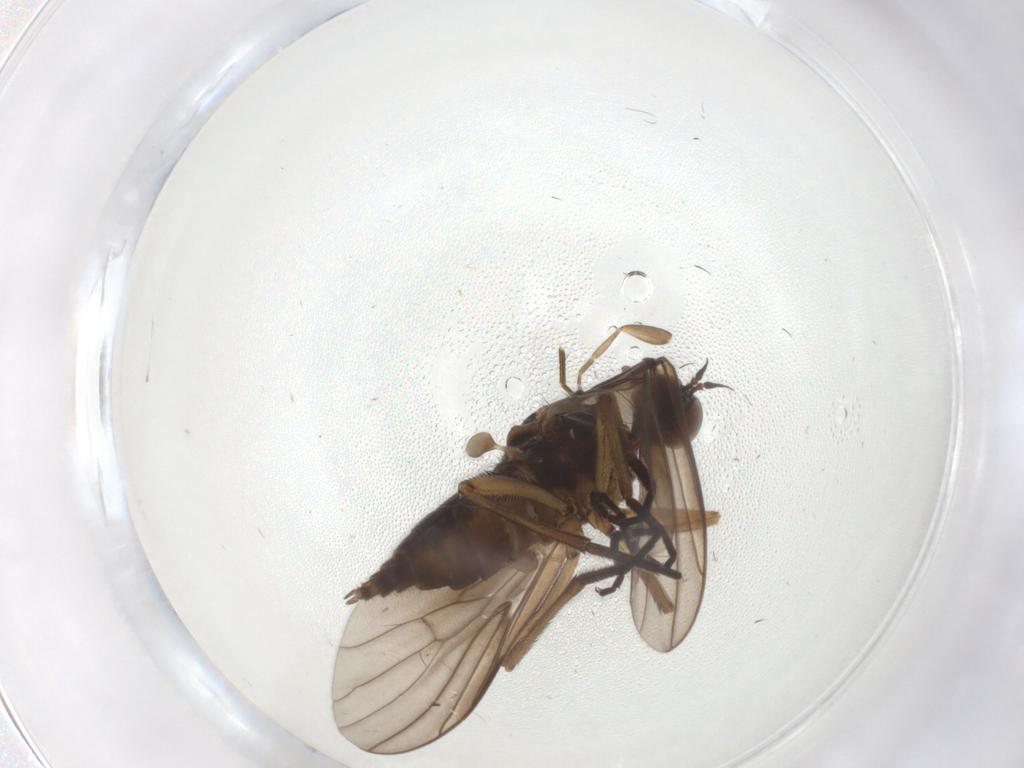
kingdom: Animalia
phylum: Arthropoda
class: Insecta
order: Diptera
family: Empididae
